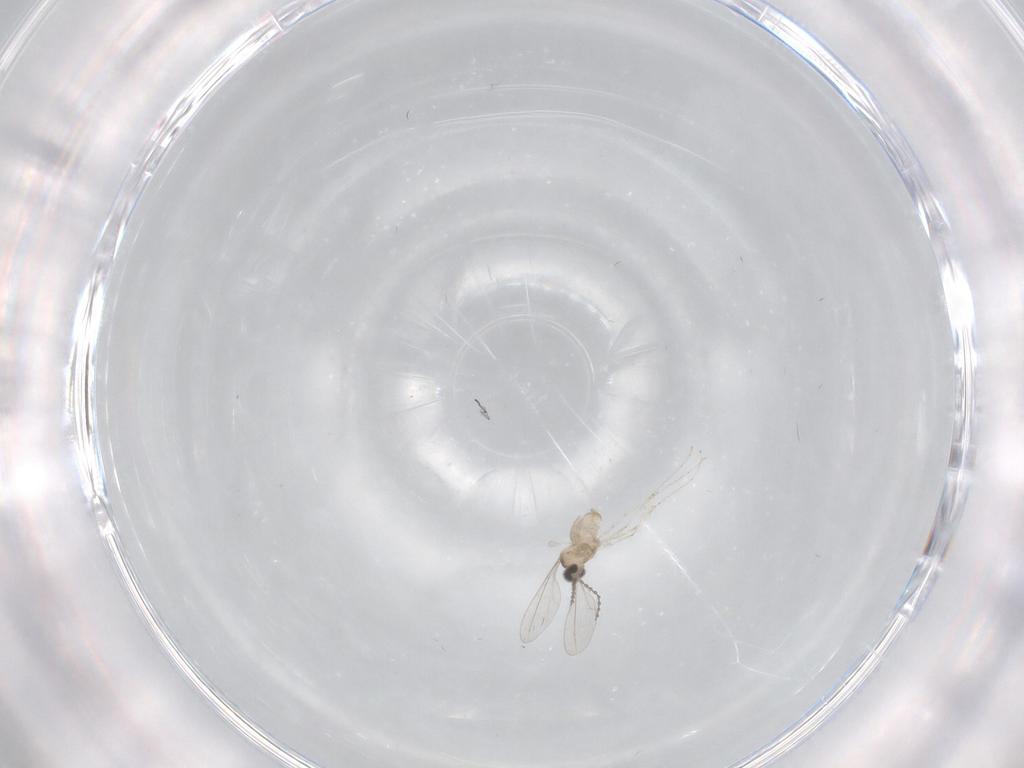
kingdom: Animalia
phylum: Arthropoda
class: Insecta
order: Diptera
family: Cecidomyiidae
